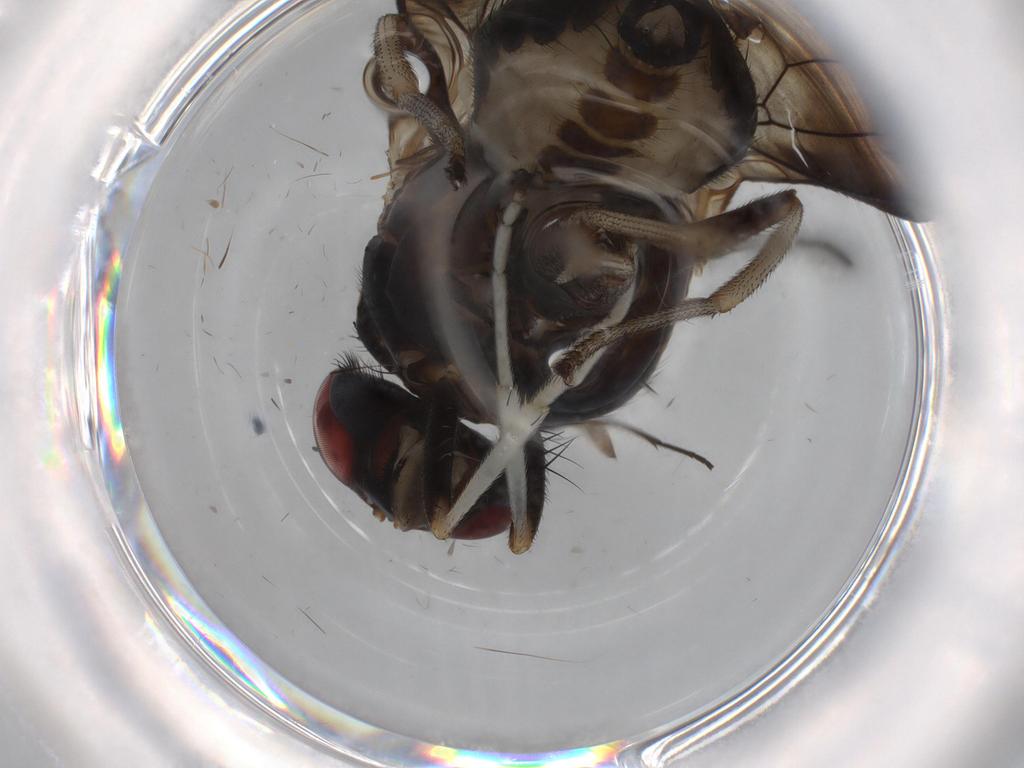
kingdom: Animalia
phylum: Arthropoda
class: Insecta
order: Diptera
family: Cecidomyiidae
